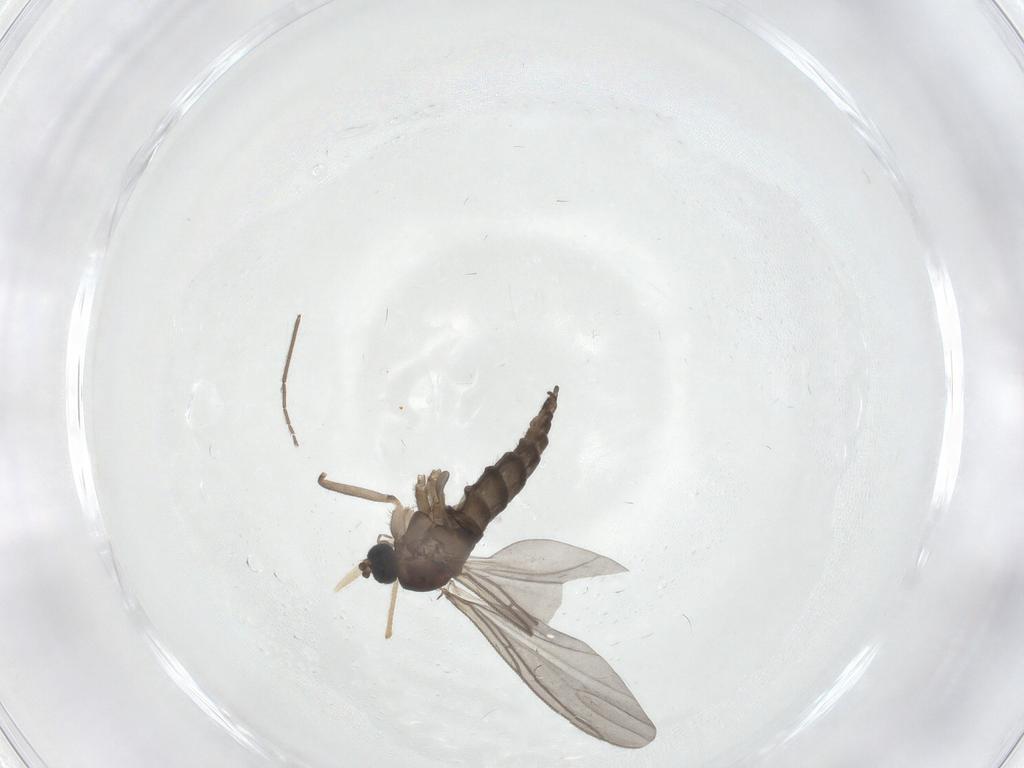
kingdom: Animalia
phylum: Arthropoda
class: Insecta
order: Diptera
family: Sciaridae
